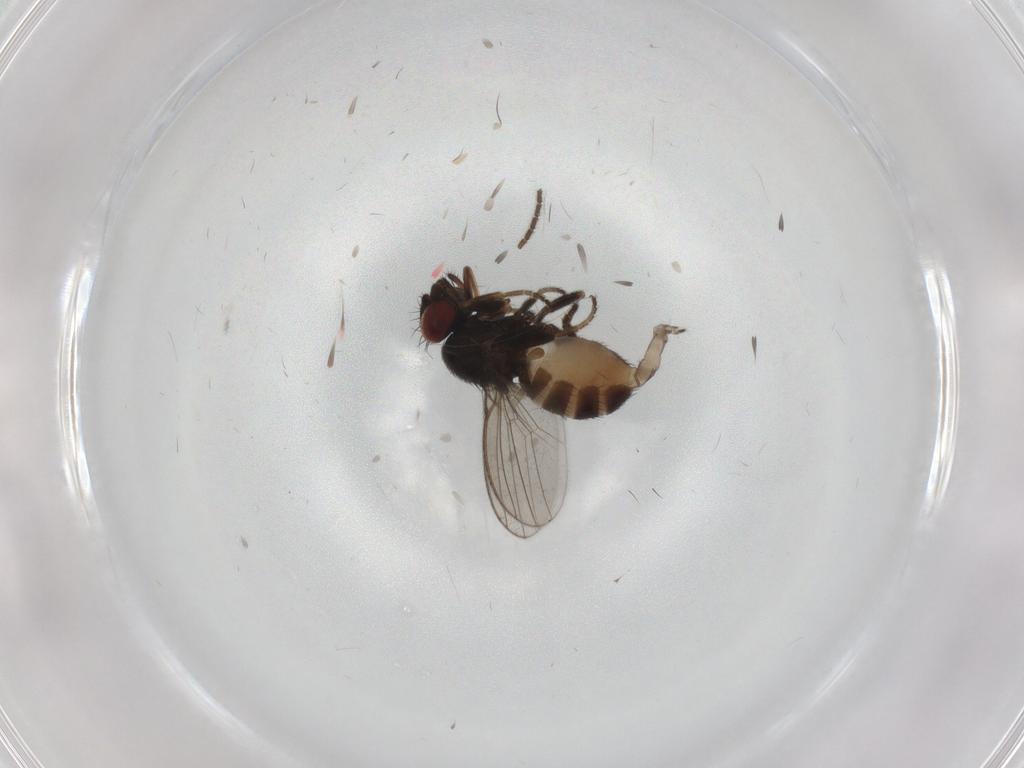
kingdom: Animalia
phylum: Arthropoda
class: Insecta
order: Diptera
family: Milichiidae
